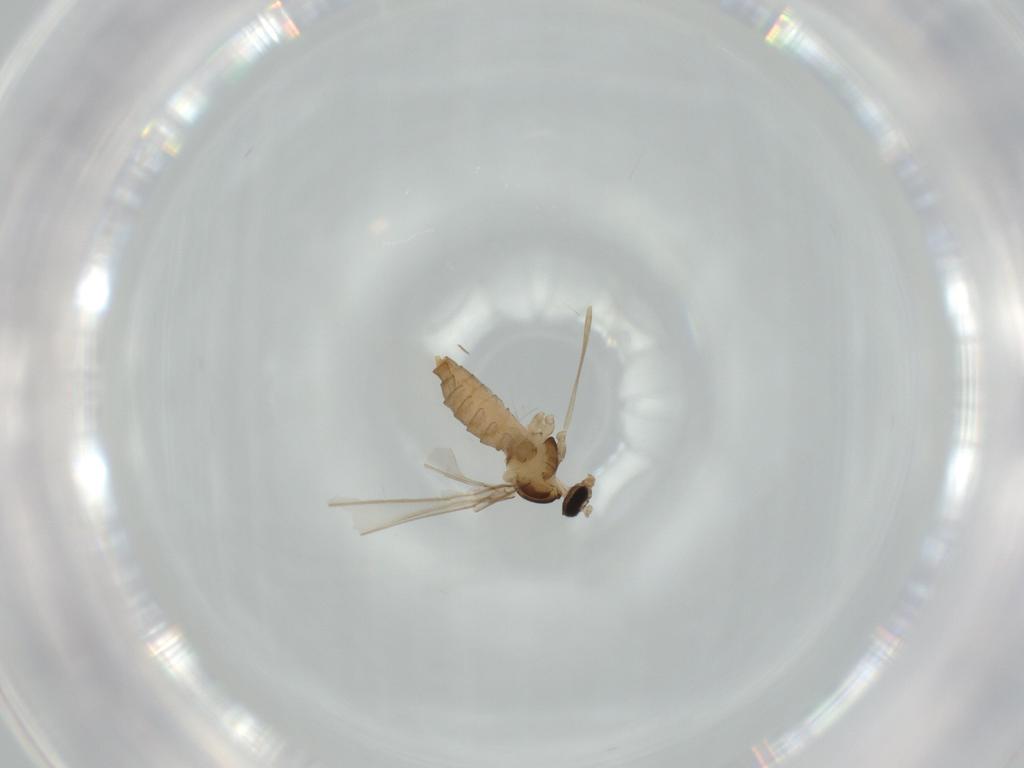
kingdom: Animalia
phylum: Arthropoda
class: Insecta
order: Diptera
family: Cecidomyiidae
